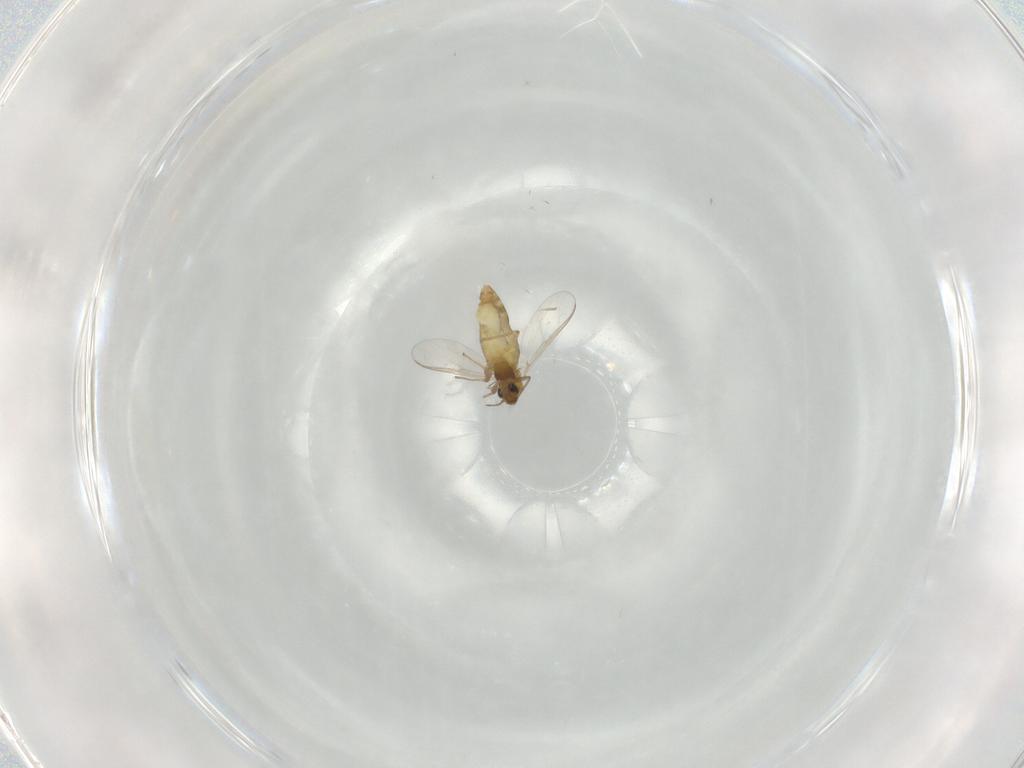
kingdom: Animalia
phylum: Arthropoda
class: Insecta
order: Diptera
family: Chironomidae
